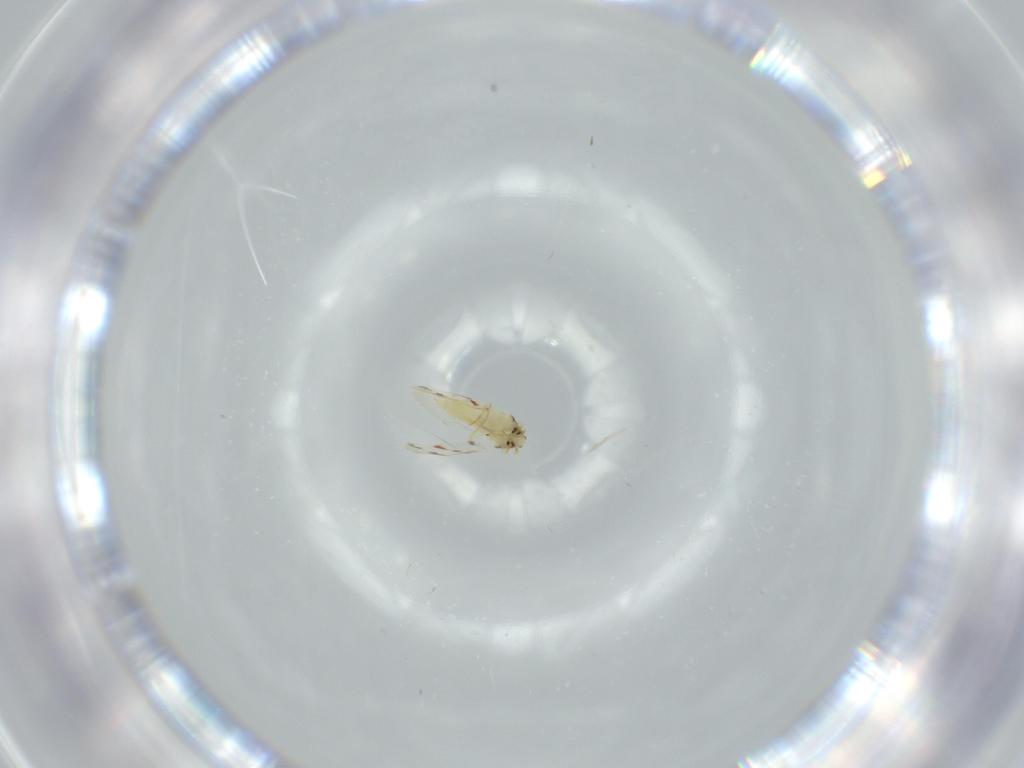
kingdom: Animalia
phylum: Arthropoda
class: Insecta
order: Hemiptera
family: Aleyrodidae
